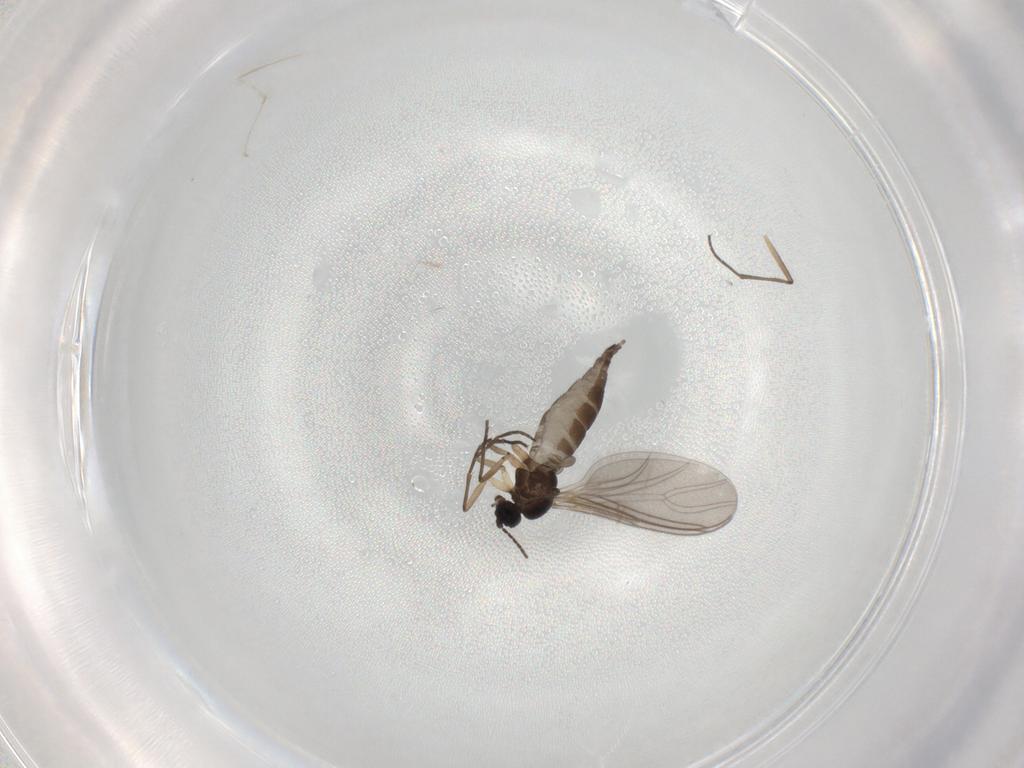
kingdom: Animalia
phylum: Arthropoda
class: Insecta
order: Diptera
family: Sciaridae
